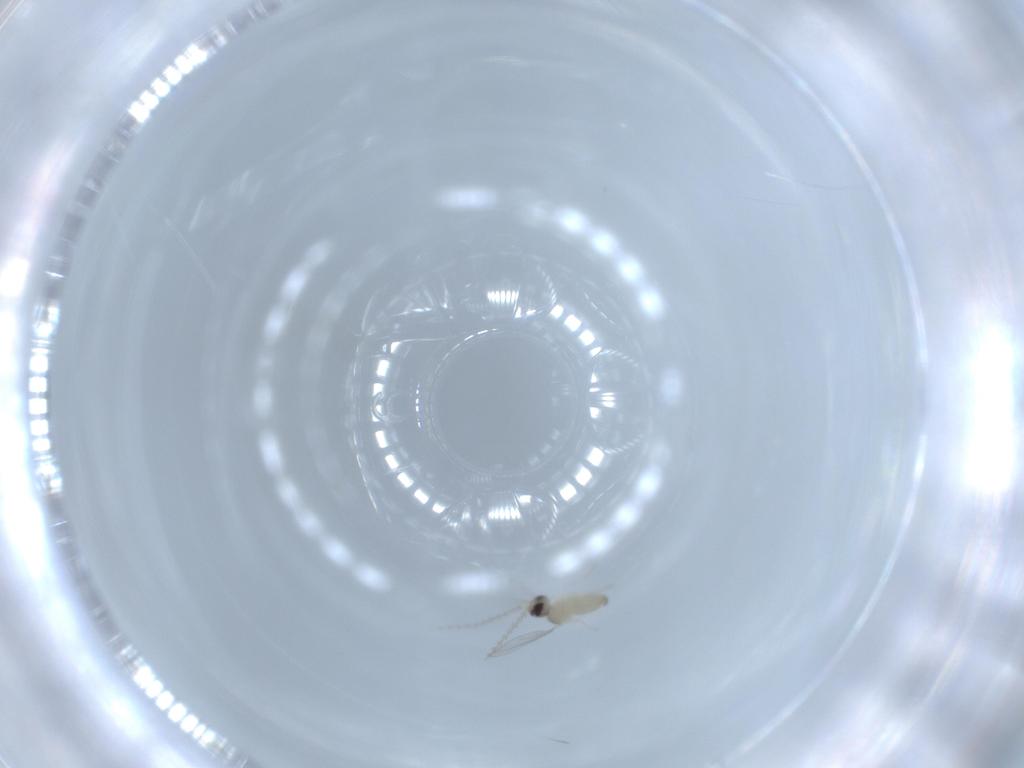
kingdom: Animalia
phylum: Arthropoda
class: Insecta
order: Diptera
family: Cecidomyiidae
